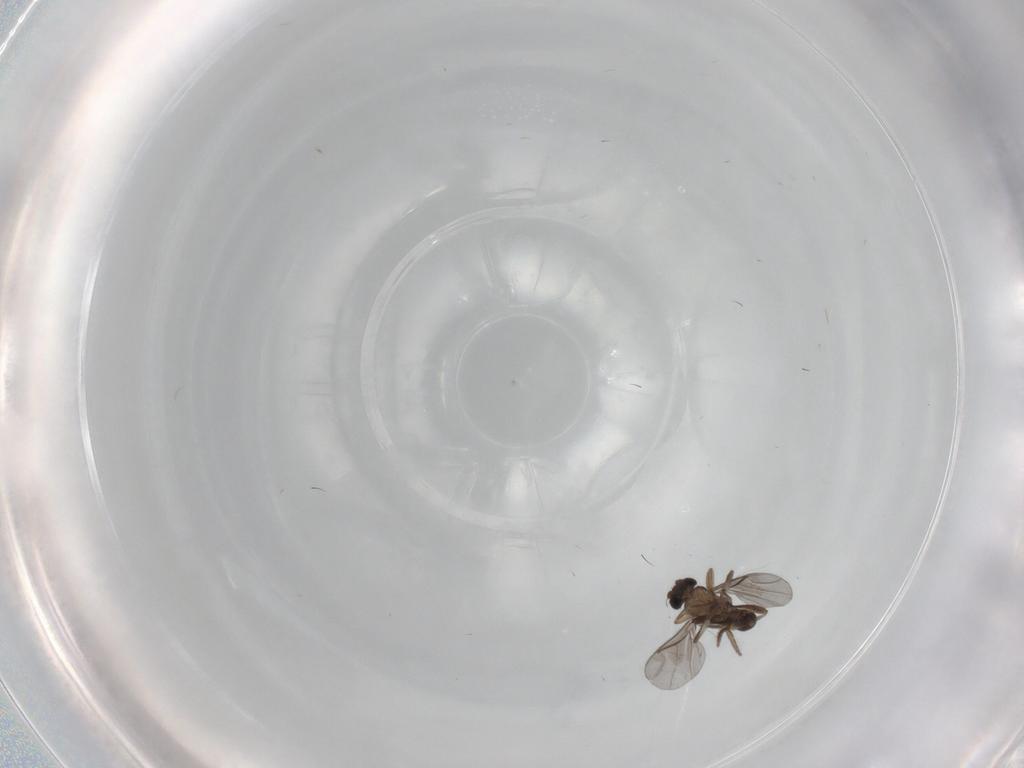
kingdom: Animalia
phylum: Arthropoda
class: Insecta
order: Diptera
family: Chironomidae
